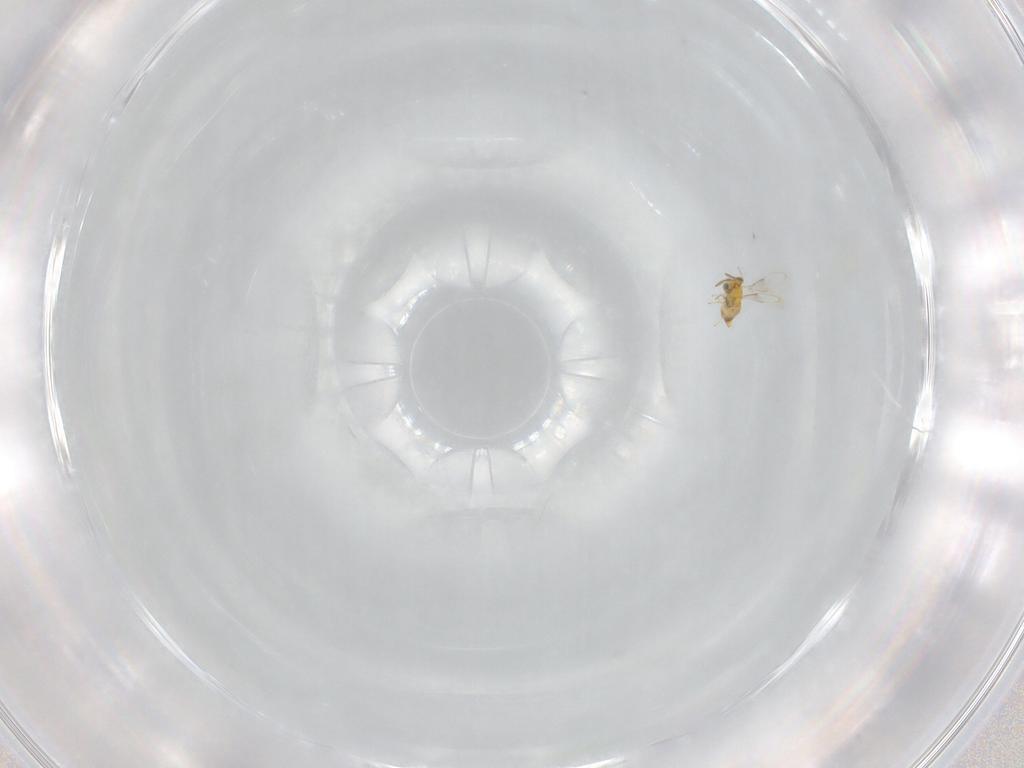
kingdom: Animalia
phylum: Arthropoda
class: Insecta
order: Hymenoptera
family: Aphelinidae
